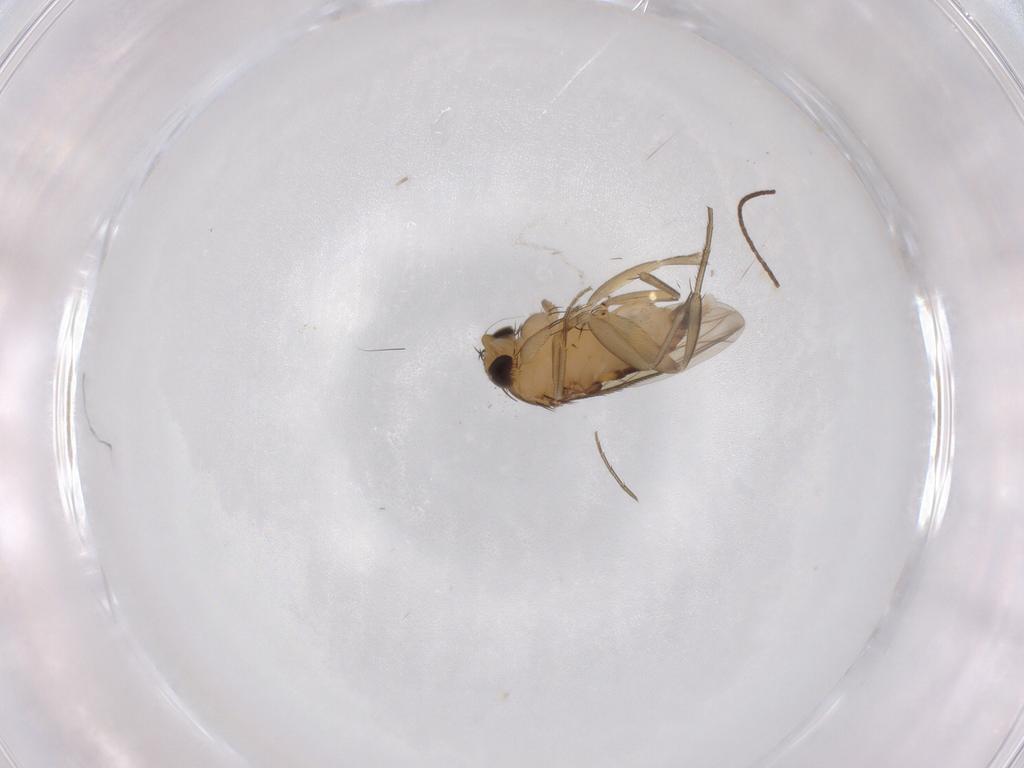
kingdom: Animalia
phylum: Arthropoda
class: Insecta
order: Diptera
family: Phoridae
